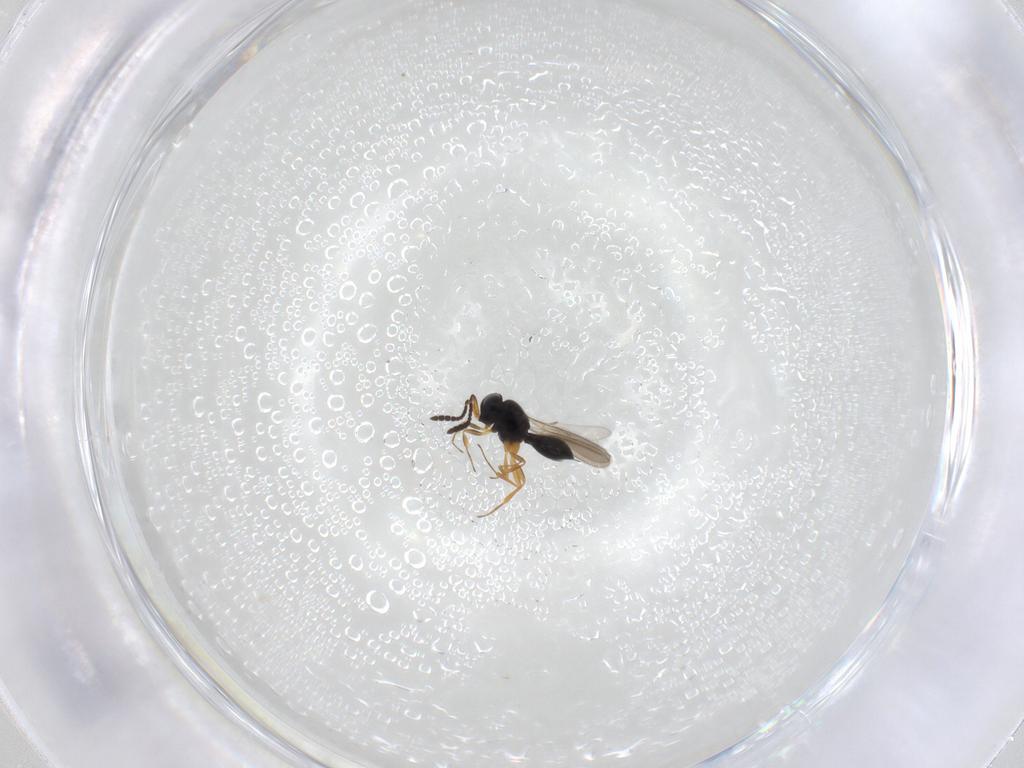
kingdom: Animalia
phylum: Arthropoda
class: Insecta
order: Hymenoptera
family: Scelionidae
